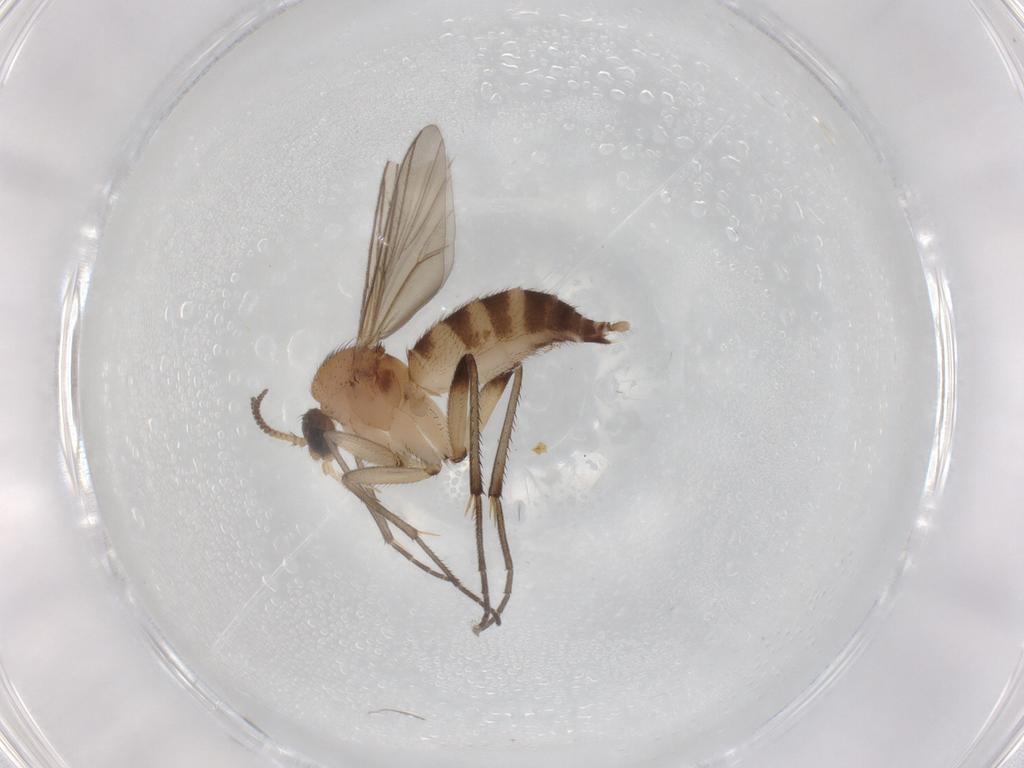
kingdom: Animalia
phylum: Arthropoda
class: Insecta
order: Diptera
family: Mycetophilidae
